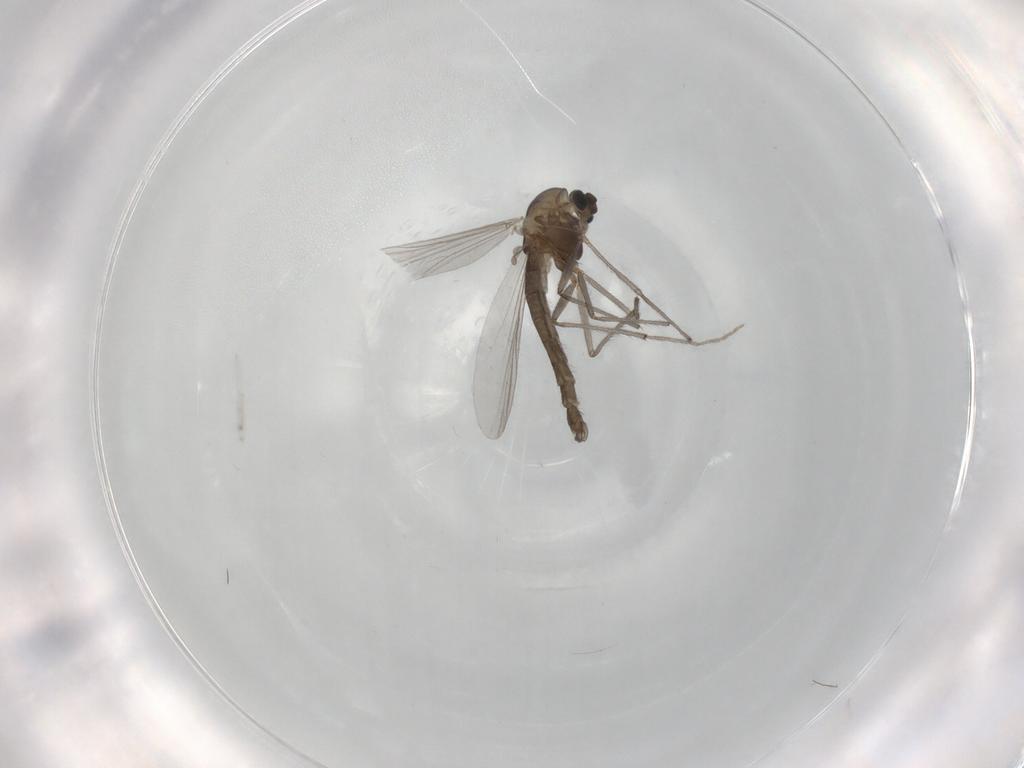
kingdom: Animalia
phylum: Arthropoda
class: Insecta
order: Diptera
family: Chironomidae
